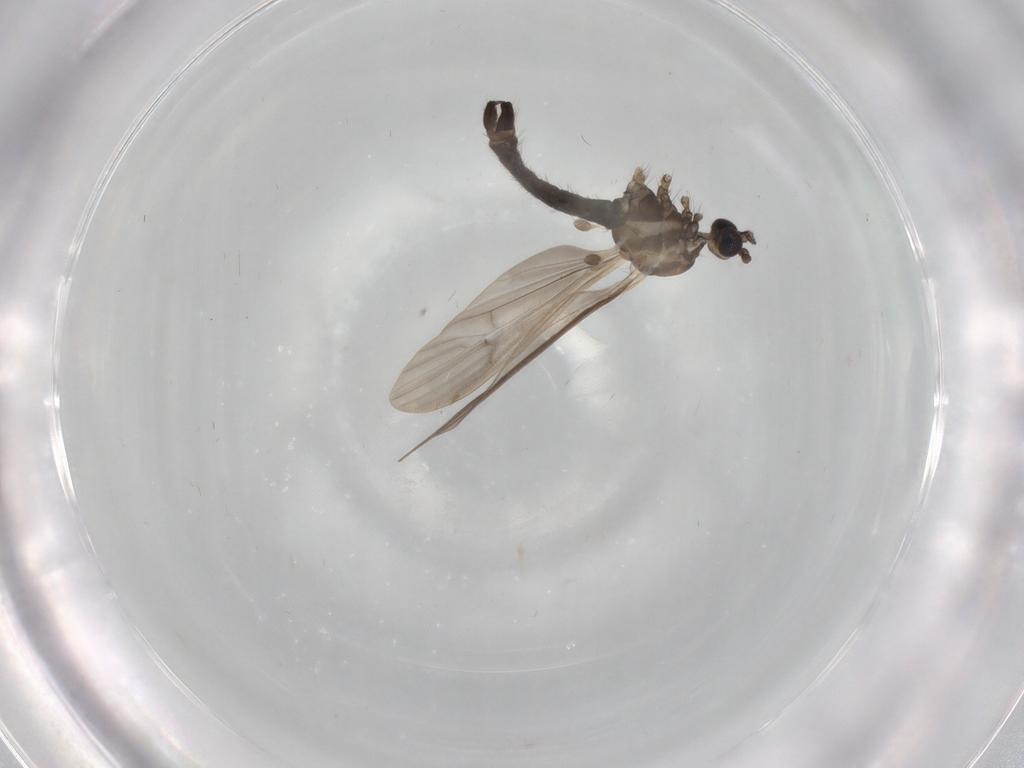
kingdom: Animalia
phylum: Arthropoda
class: Insecta
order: Diptera
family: Limoniidae
